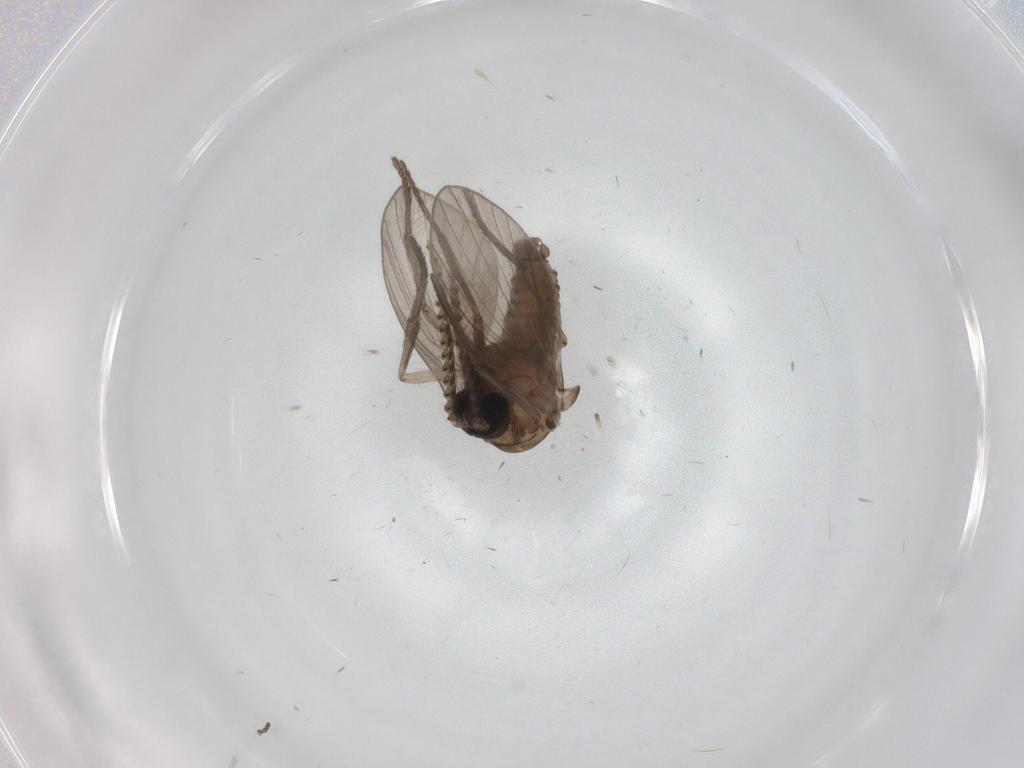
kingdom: Animalia
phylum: Arthropoda
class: Insecta
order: Diptera
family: Psychodidae
